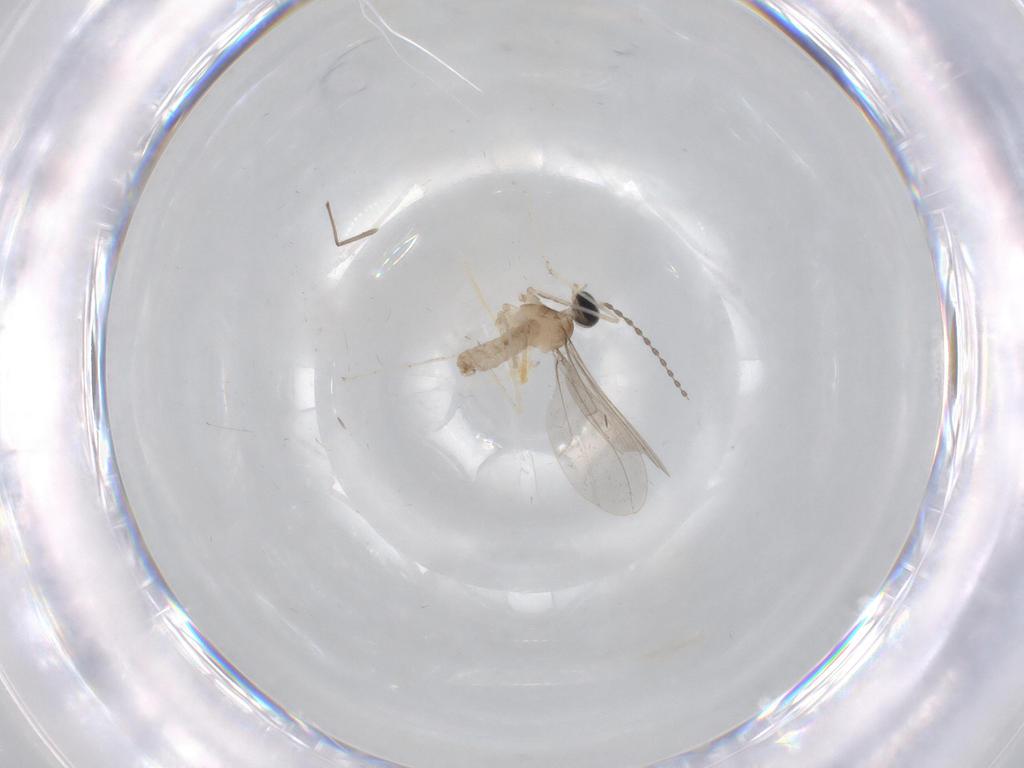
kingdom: Animalia
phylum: Arthropoda
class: Insecta
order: Diptera
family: Cecidomyiidae
